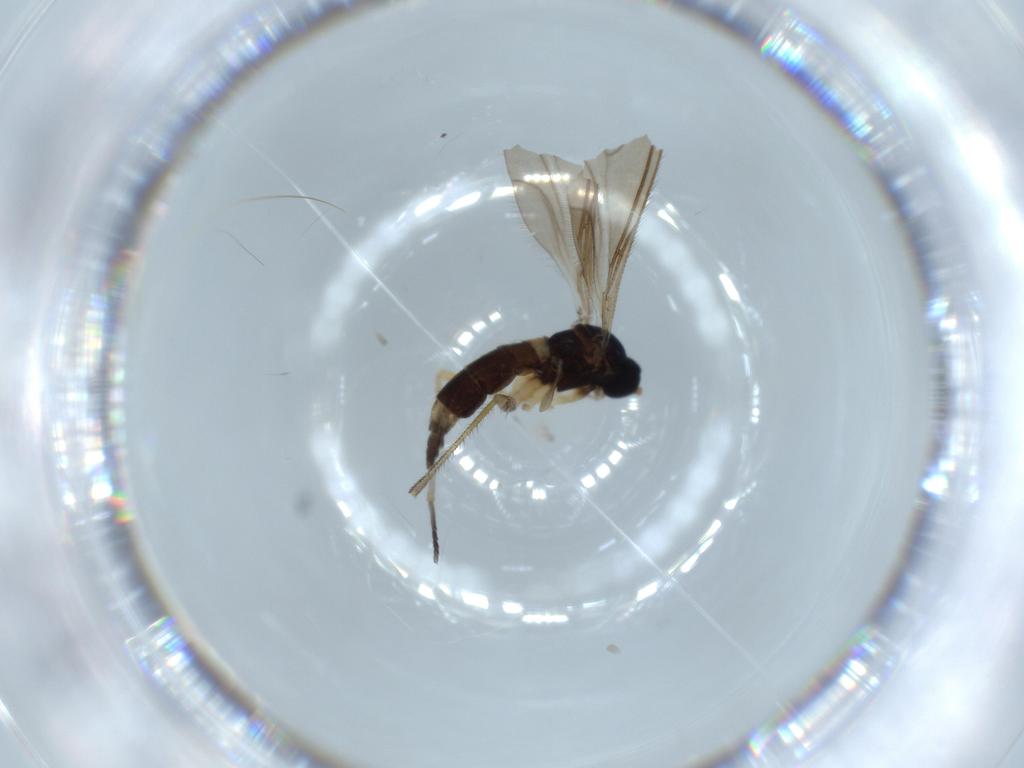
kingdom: Animalia
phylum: Arthropoda
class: Insecta
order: Diptera
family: Sciaridae
